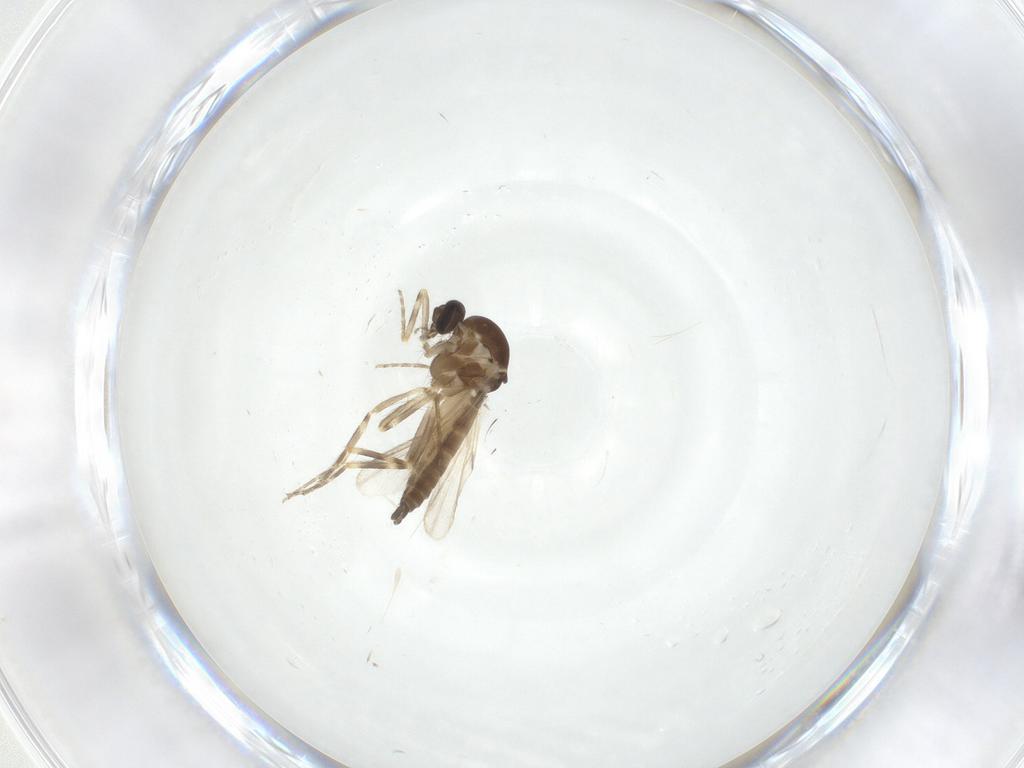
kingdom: Animalia
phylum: Arthropoda
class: Insecta
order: Diptera
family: Ceratopogonidae
